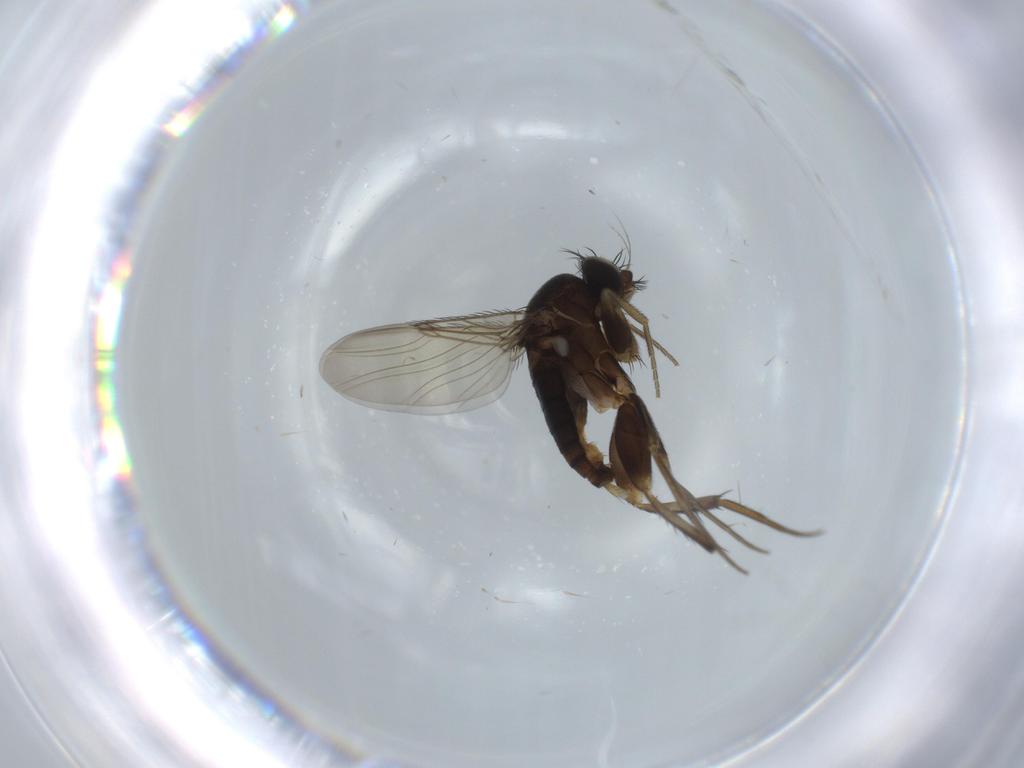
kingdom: Animalia
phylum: Arthropoda
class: Insecta
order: Diptera
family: Phoridae
